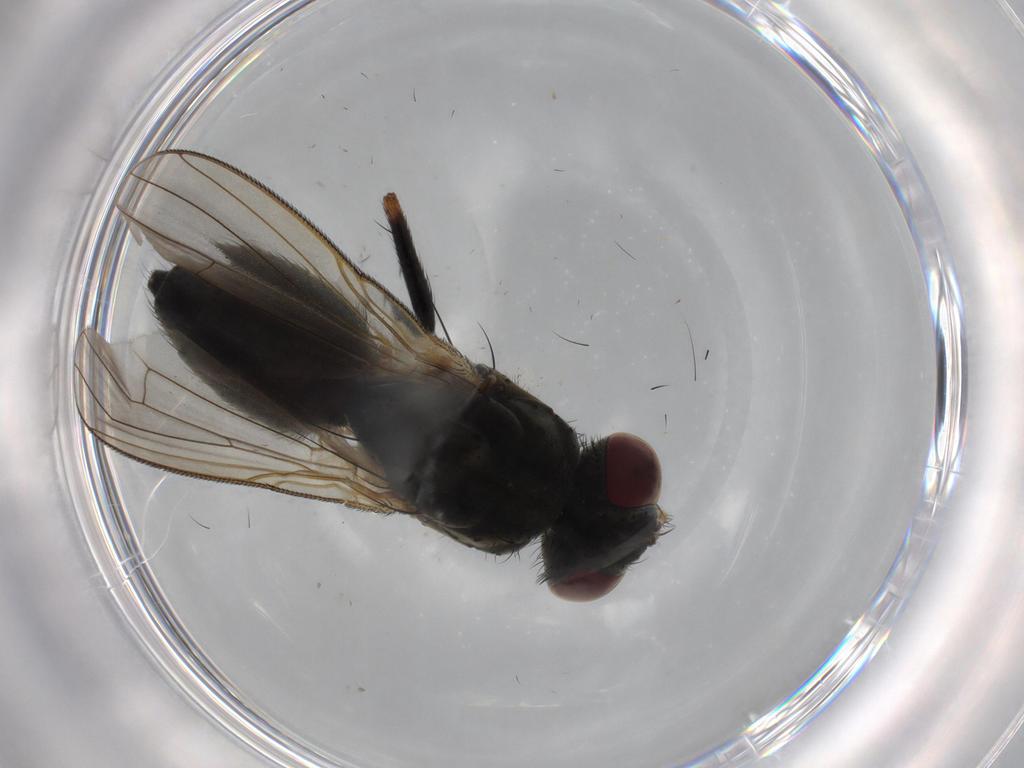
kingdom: Animalia
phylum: Arthropoda
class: Insecta
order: Diptera
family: Muscidae
